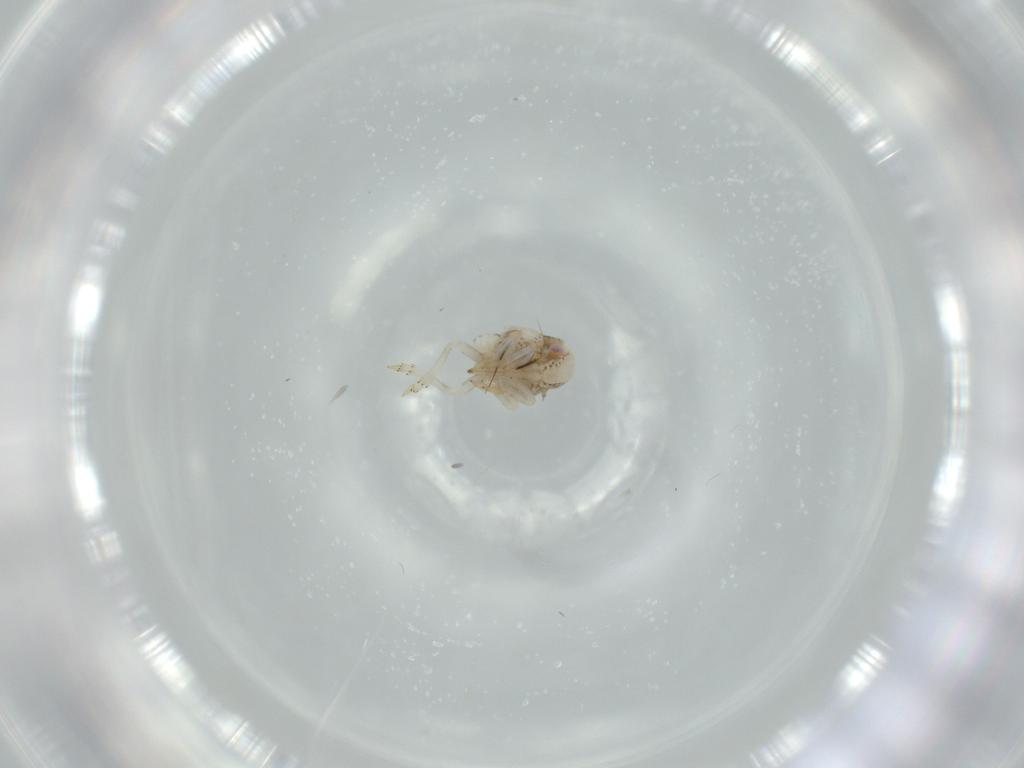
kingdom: Animalia
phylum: Arthropoda
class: Insecta
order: Hemiptera
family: Acanaloniidae
